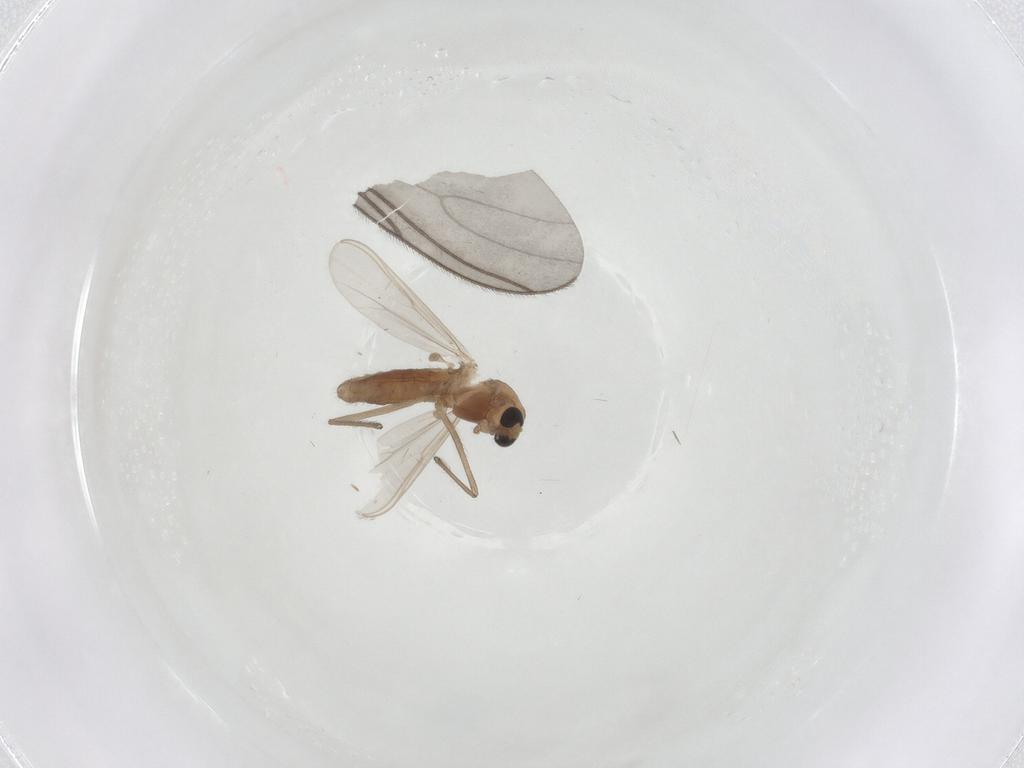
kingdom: Animalia
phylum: Arthropoda
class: Insecta
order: Diptera
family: Chironomidae
